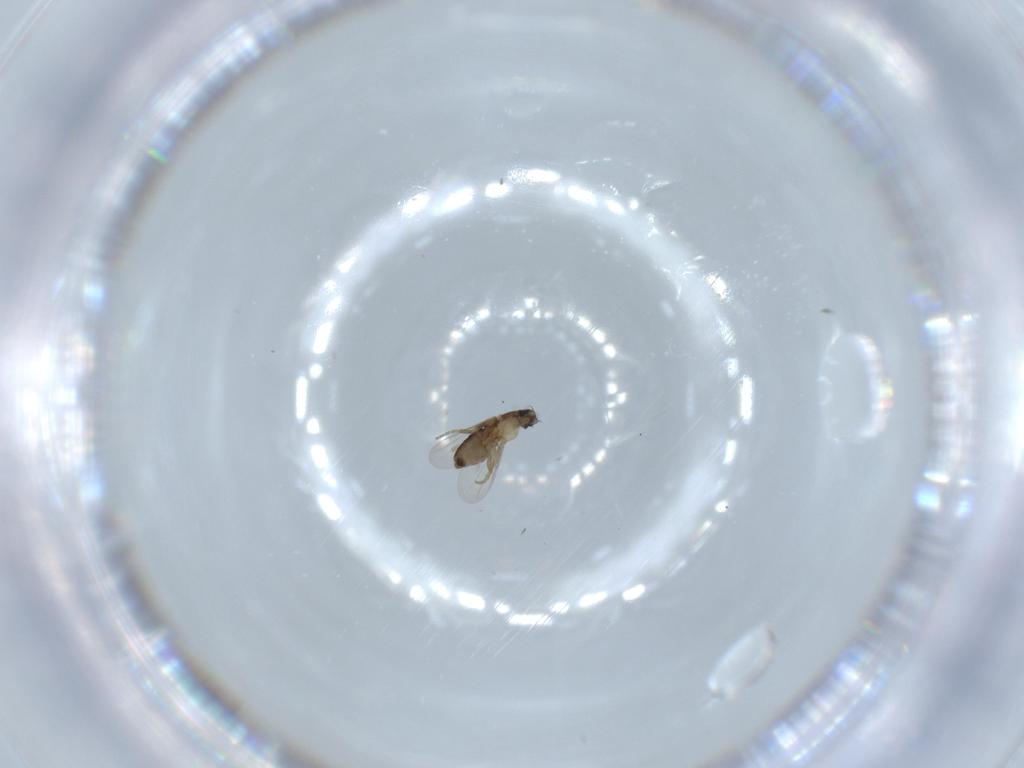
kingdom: Animalia
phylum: Arthropoda
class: Insecta
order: Diptera
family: Phoridae
